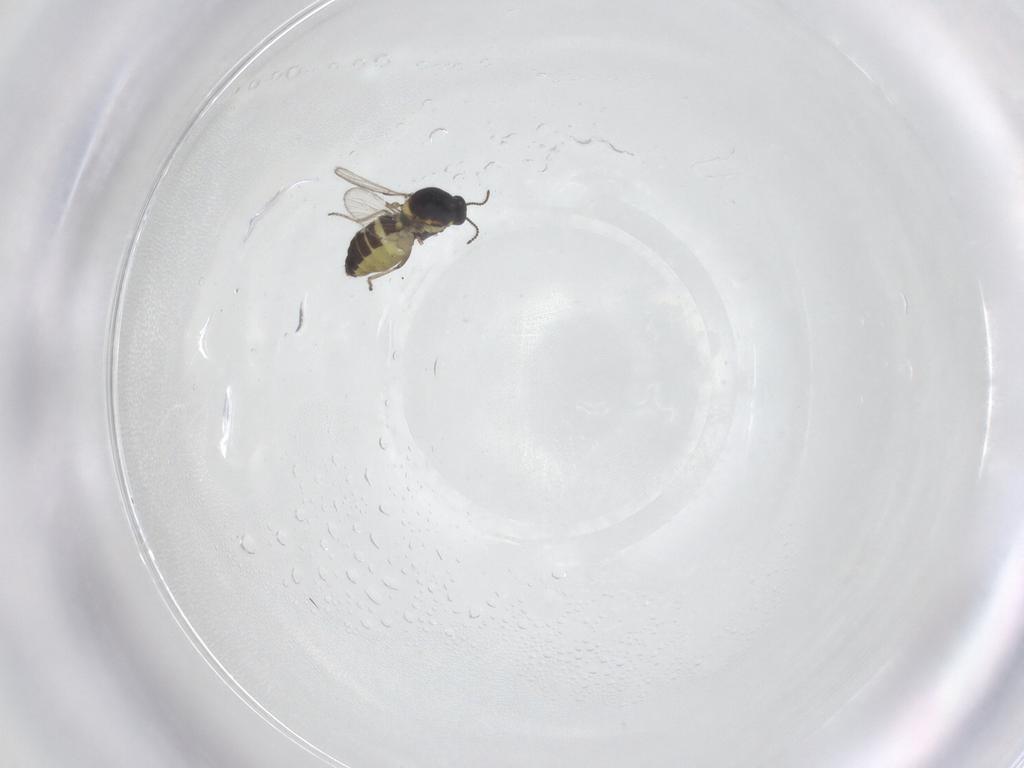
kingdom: Animalia
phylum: Arthropoda
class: Insecta
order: Diptera
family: Ceratopogonidae
